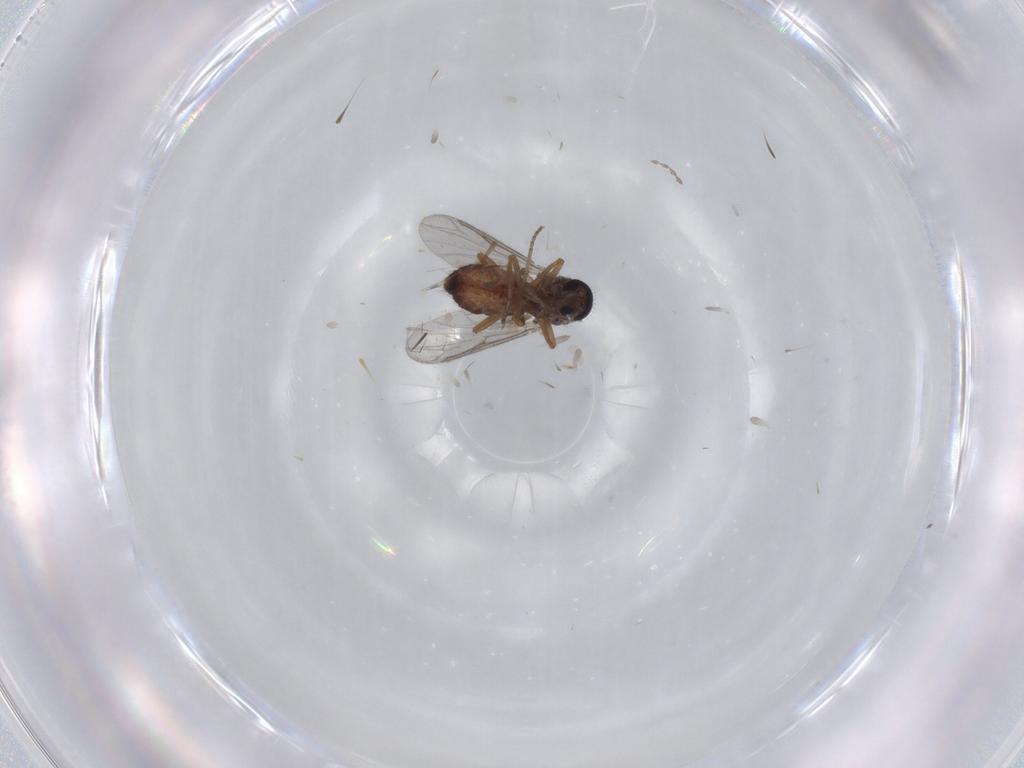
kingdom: Animalia
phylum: Arthropoda
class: Insecta
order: Diptera
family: Ceratopogonidae
